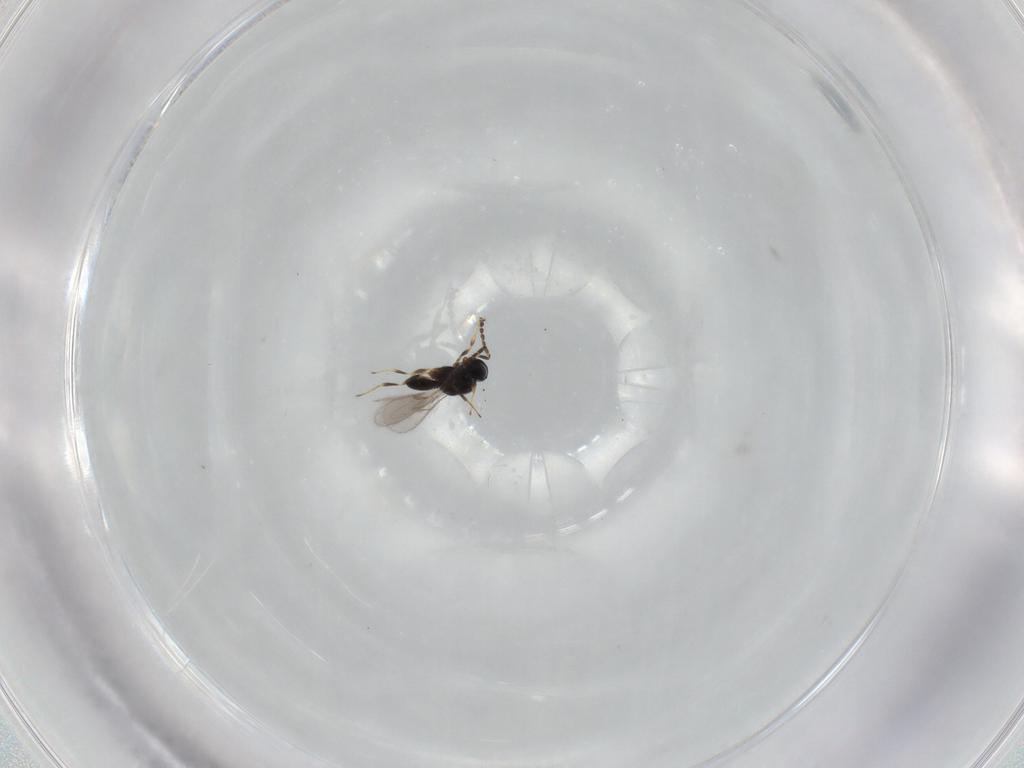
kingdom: Animalia
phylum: Arthropoda
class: Insecta
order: Hymenoptera
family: Scelionidae
